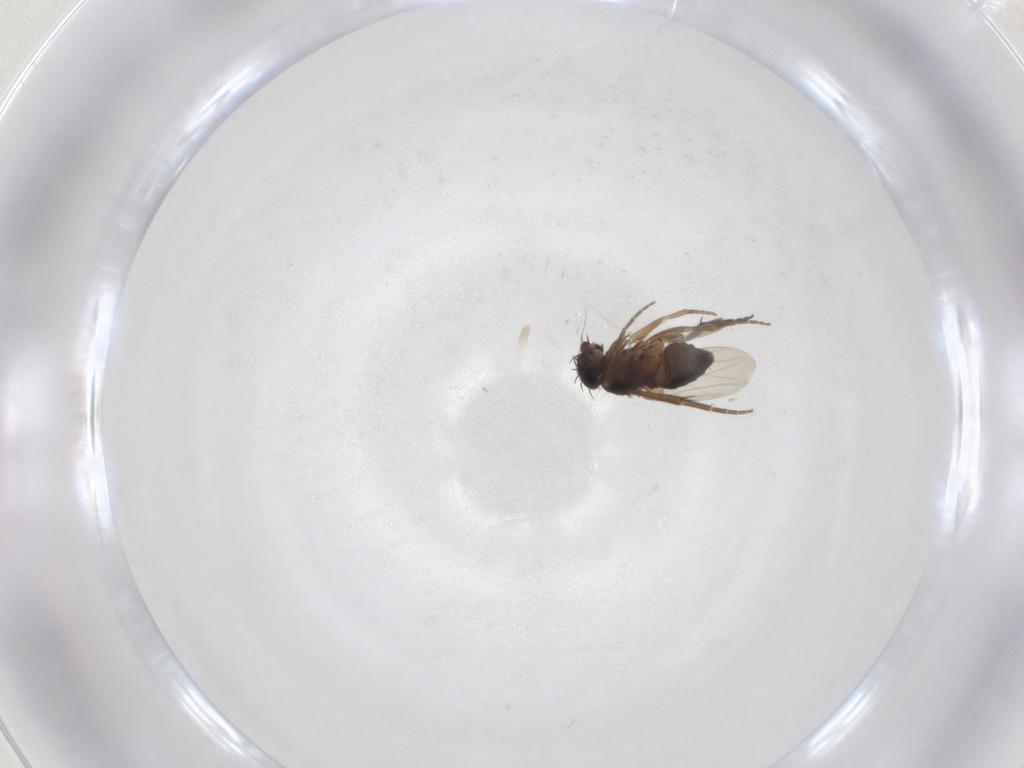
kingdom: Animalia
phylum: Arthropoda
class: Insecta
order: Diptera
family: Phoridae
